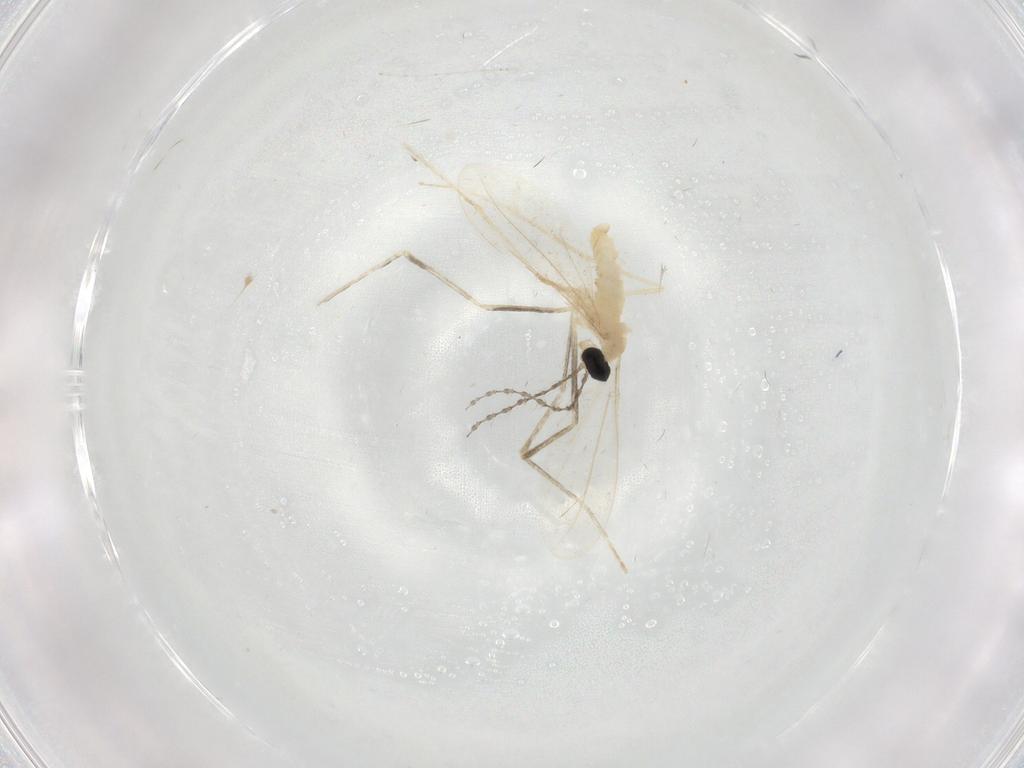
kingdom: Animalia
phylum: Arthropoda
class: Insecta
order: Diptera
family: Cecidomyiidae
